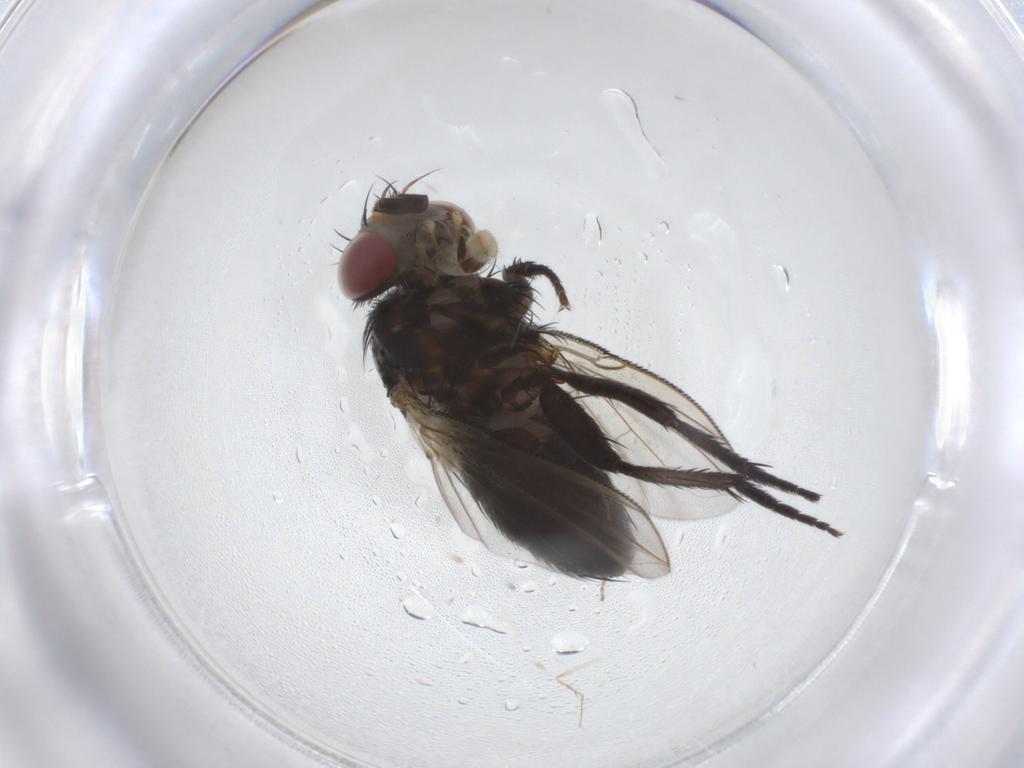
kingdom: Animalia
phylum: Arthropoda
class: Insecta
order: Diptera
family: Tachinidae
